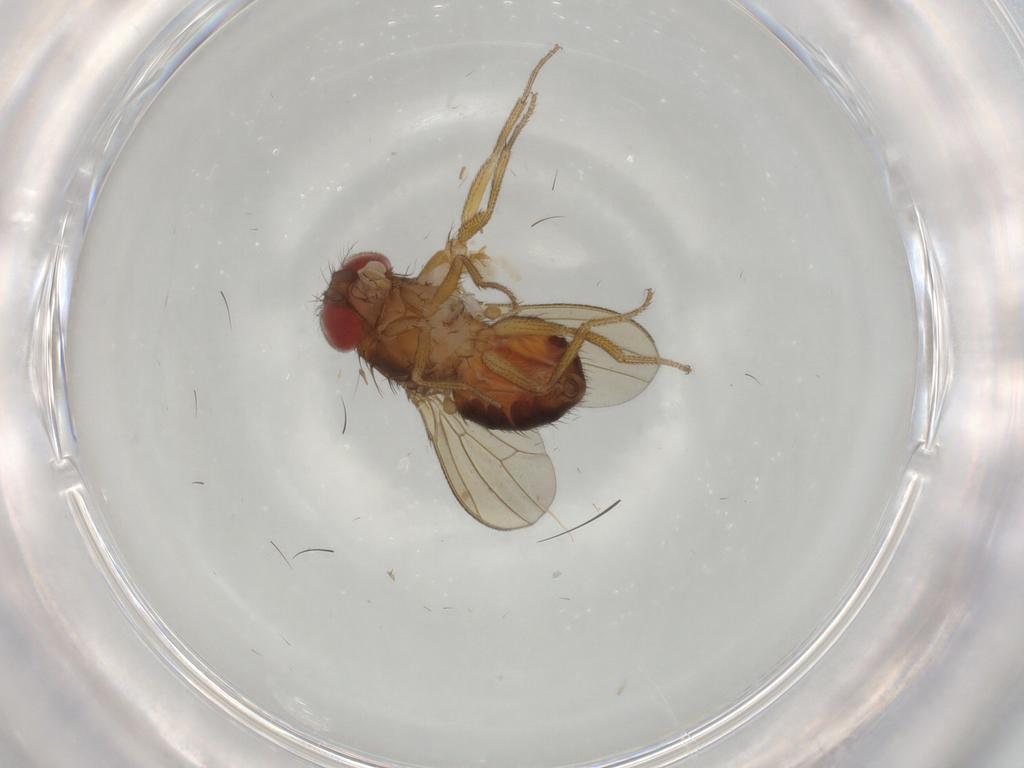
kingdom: Animalia
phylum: Arthropoda
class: Insecta
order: Diptera
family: Drosophilidae
